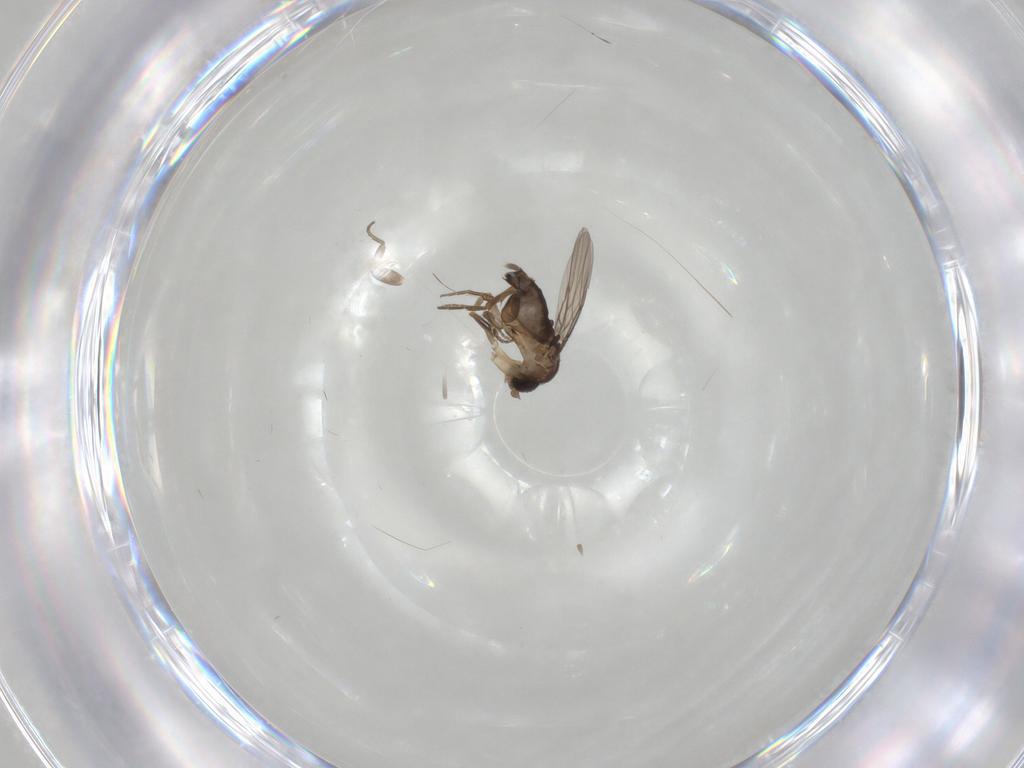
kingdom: Animalia
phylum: Arthropoda
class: Insecta
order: Diptera
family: Phoridae
